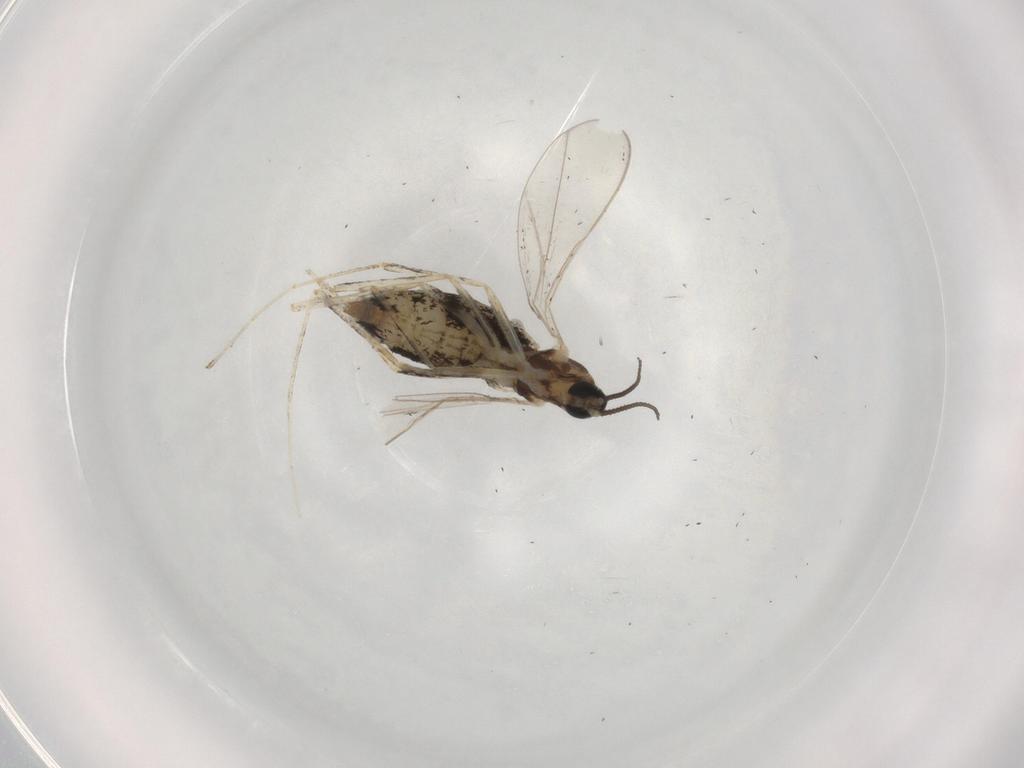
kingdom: Animalia
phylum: Arthropoda
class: Insecta
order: Diptera
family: Cecidomyiidae
